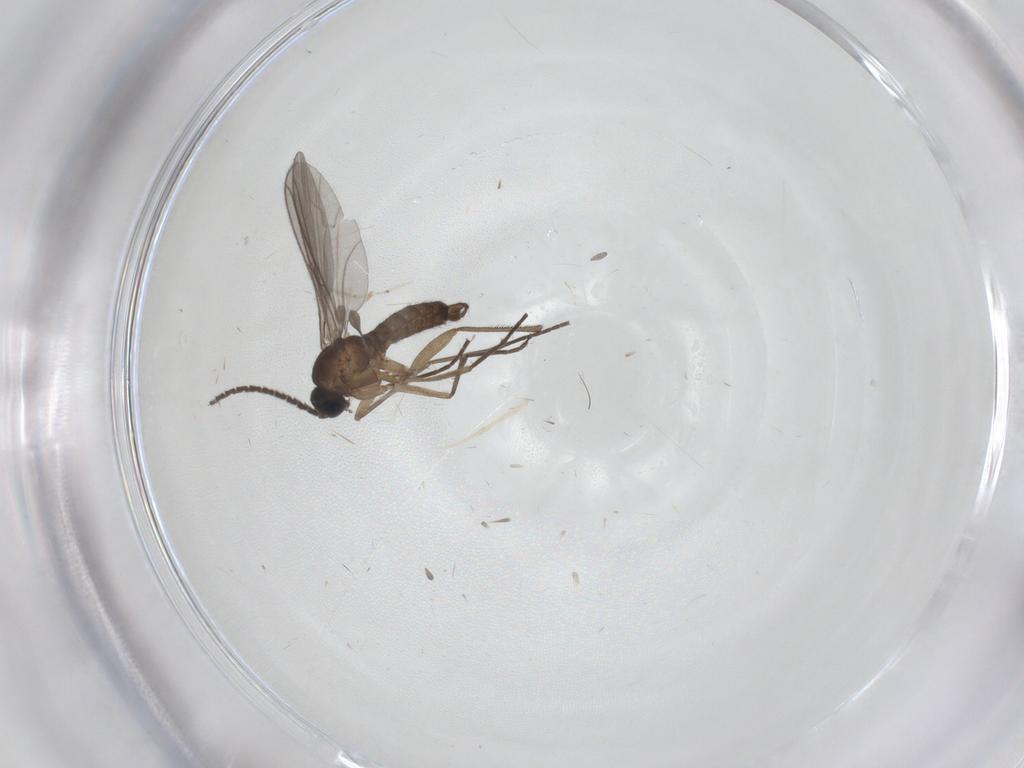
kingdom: Animalia
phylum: Arthropoda
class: Insecta
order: Diptera
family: Sciaridae
